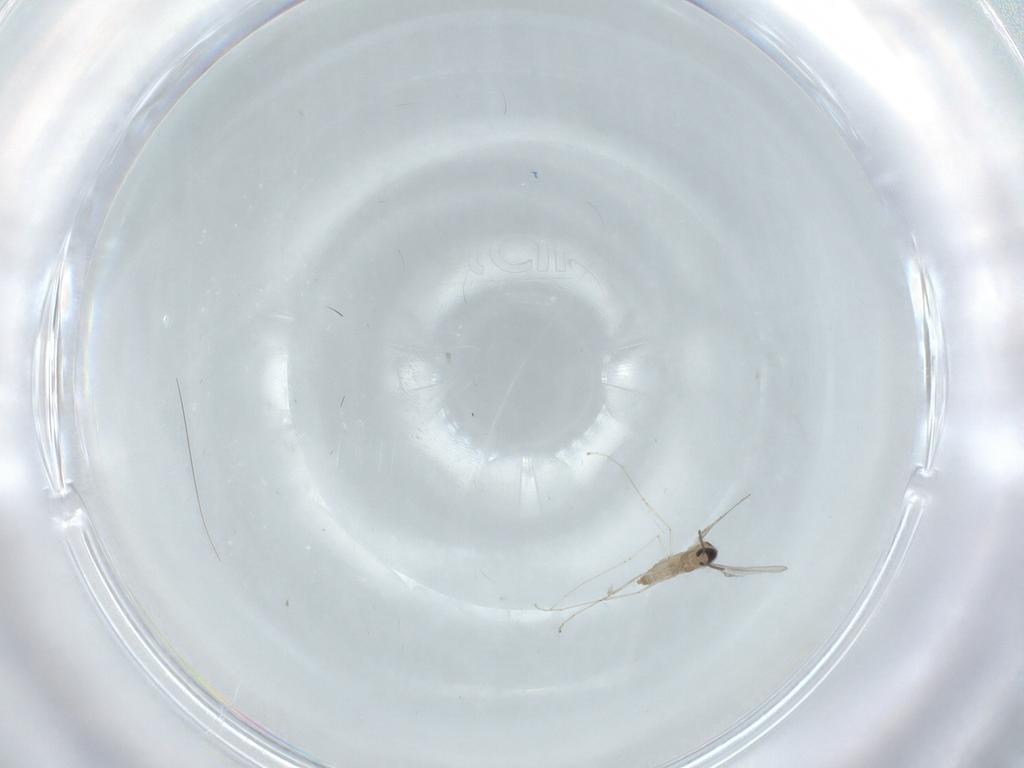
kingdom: Animalia
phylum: Arthropoda
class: Insecta
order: Diptera
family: Cecidomyiidae
